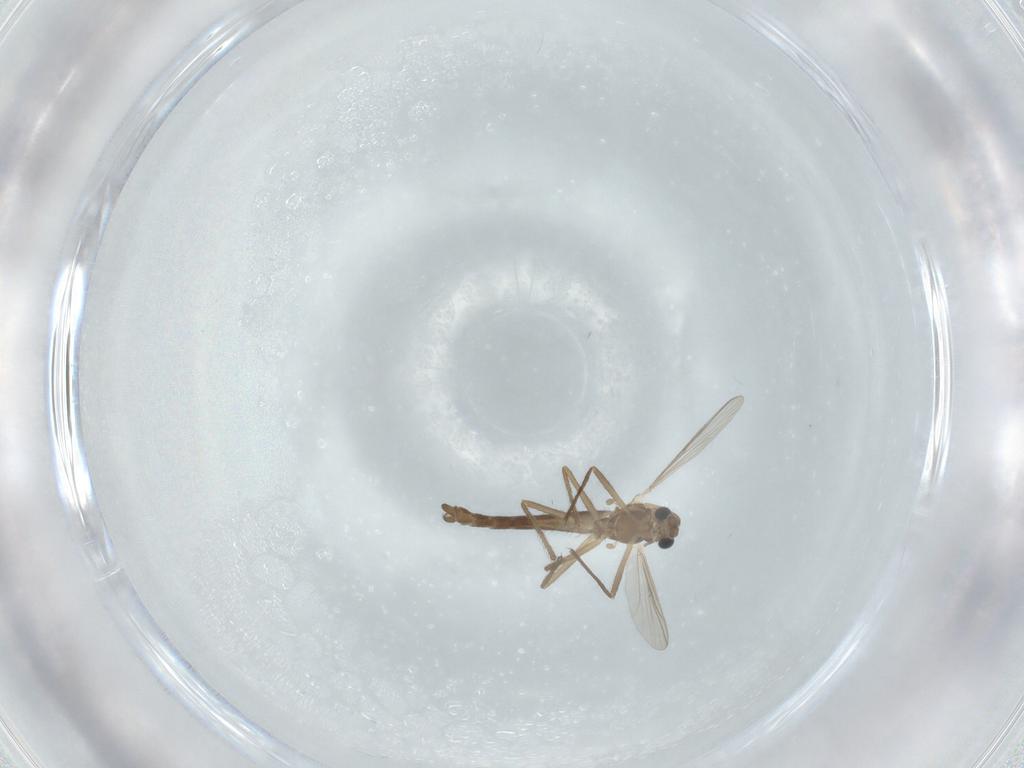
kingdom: Animalia
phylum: Arthropoda
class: Insecta
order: Diptera
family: Chironomidae
